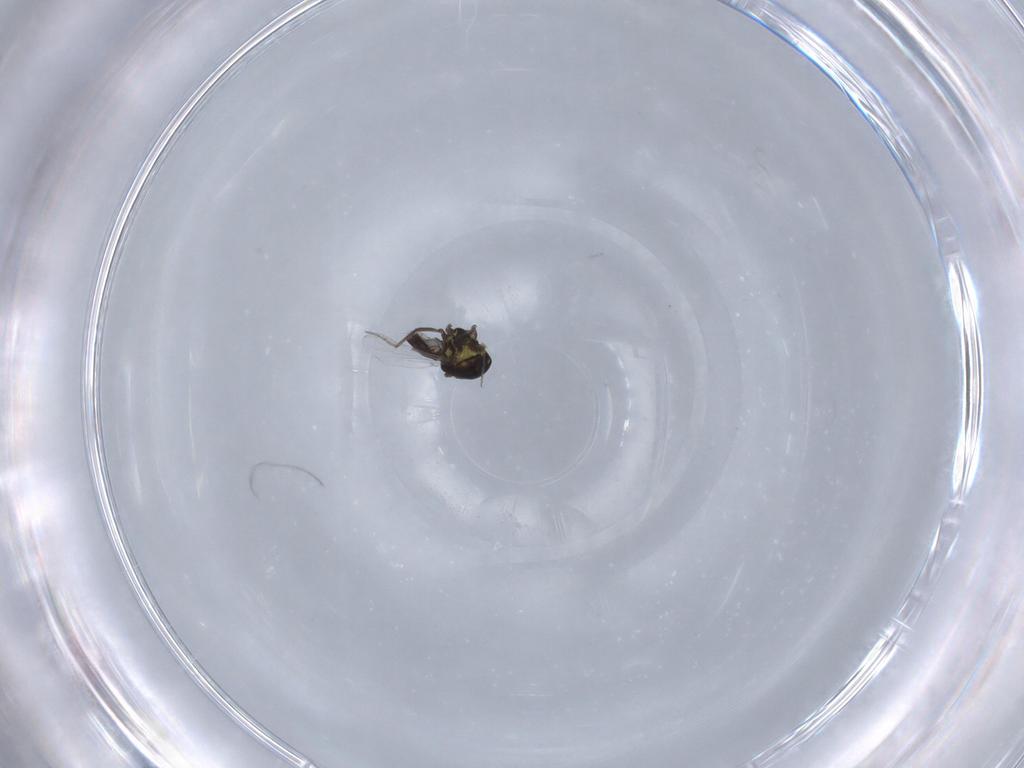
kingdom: Animalia
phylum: Arthropoda
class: Insecta
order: Diptera
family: Ceratopogonidae
